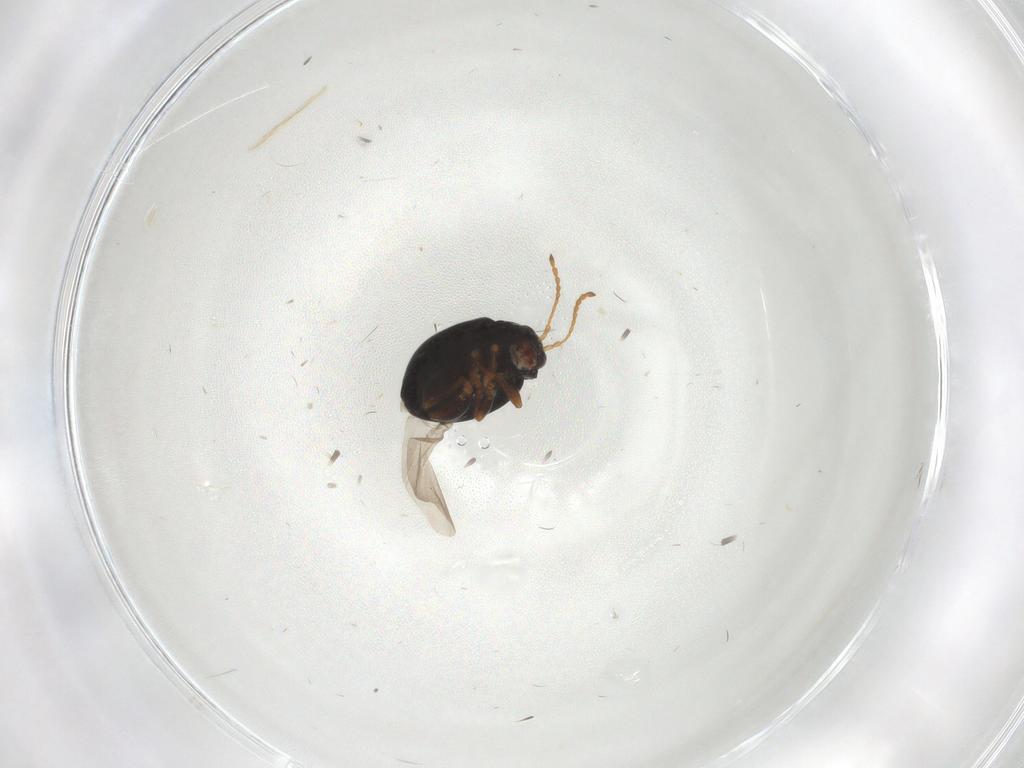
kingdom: Animalia
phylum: Arthropoda
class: Insecta
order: Coleoptera
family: Chrysomelidae
